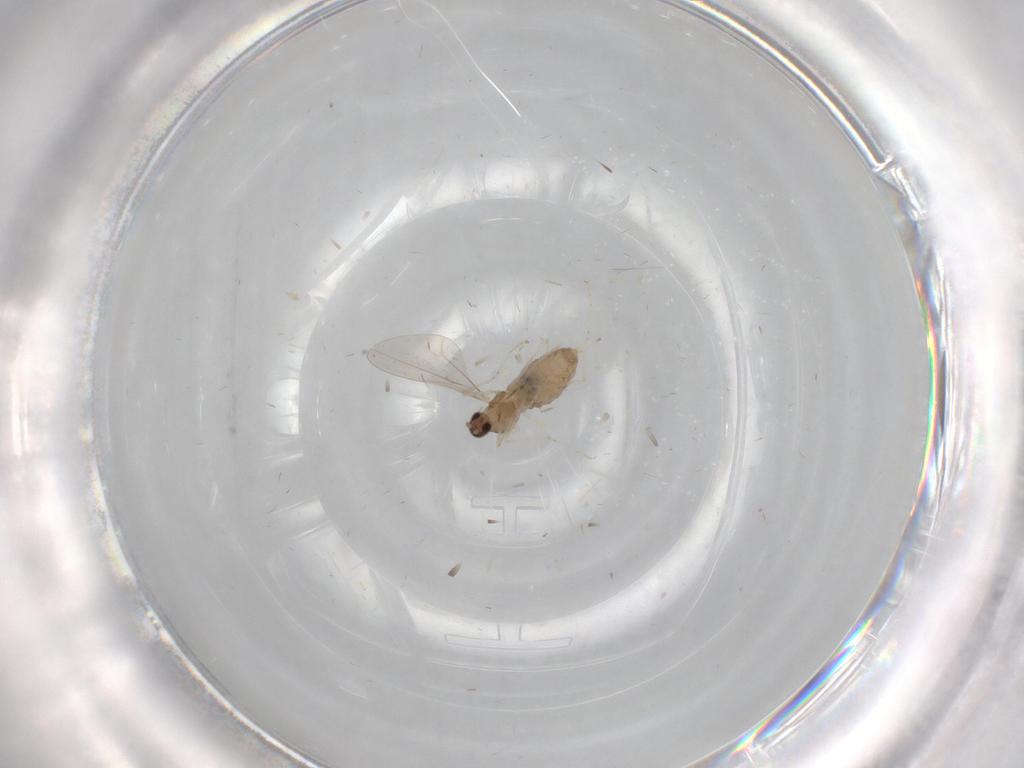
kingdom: Animalia
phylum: Arthropoda
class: Insecta
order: Diptera
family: Cecidomyiidae
